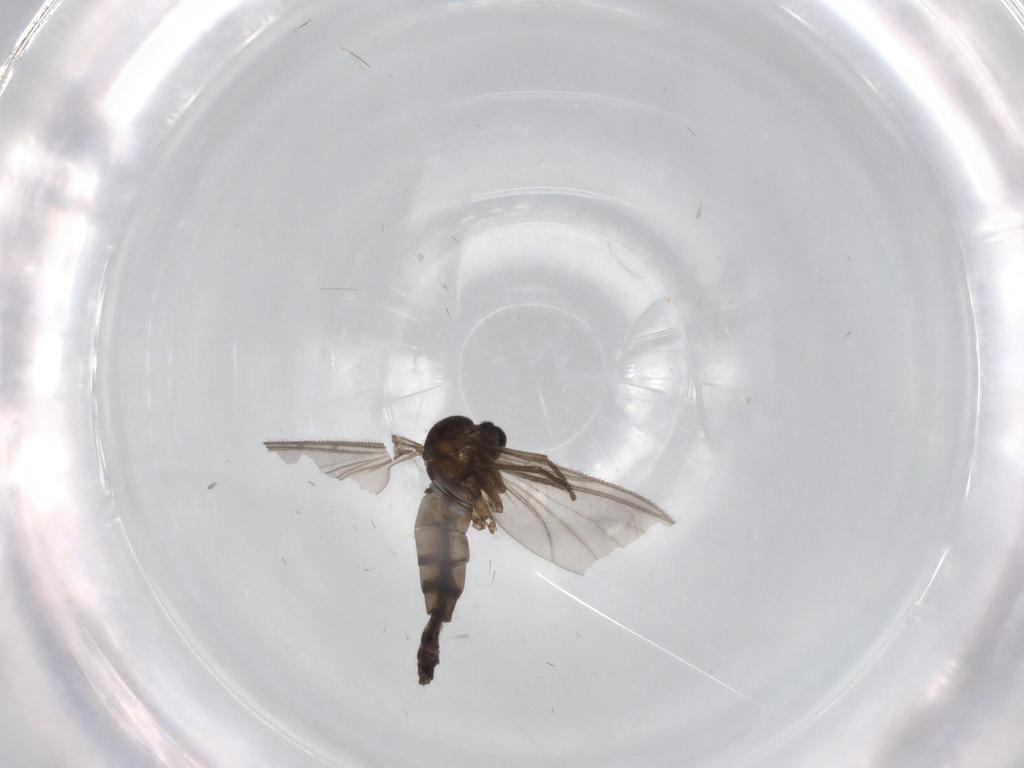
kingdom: Animalia
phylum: Arthropoda
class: Insecta
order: Diptera
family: Sciaridae
